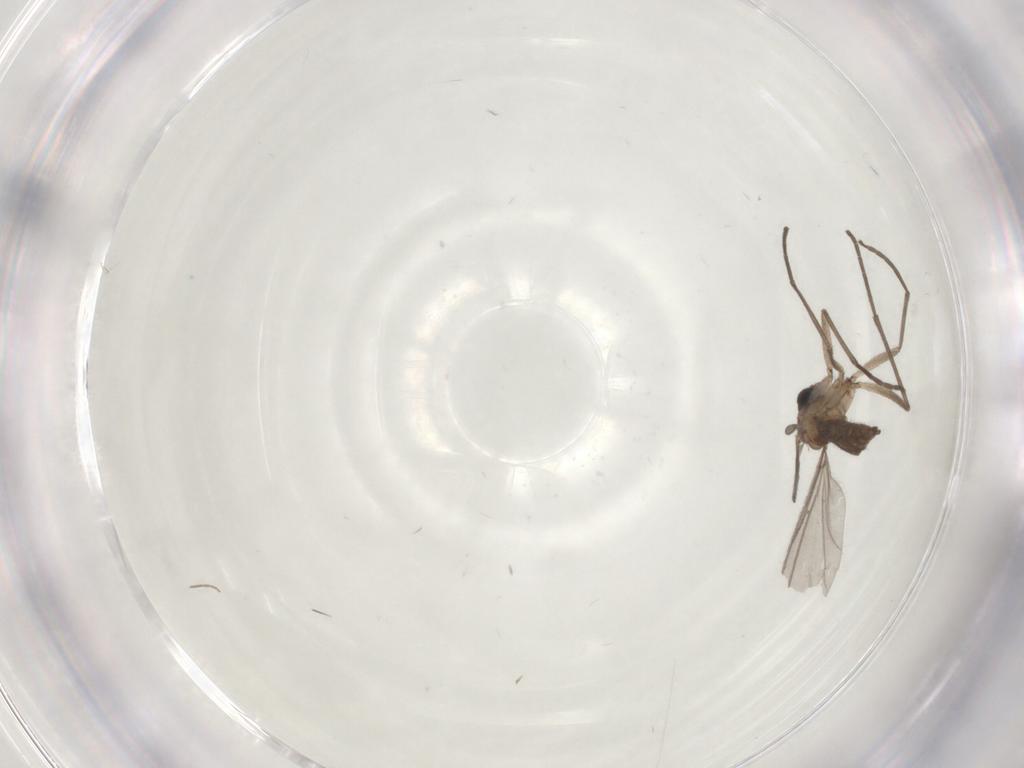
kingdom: Animalia
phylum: Arthropoda
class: Insecta
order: Diptera
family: Sciaridae
